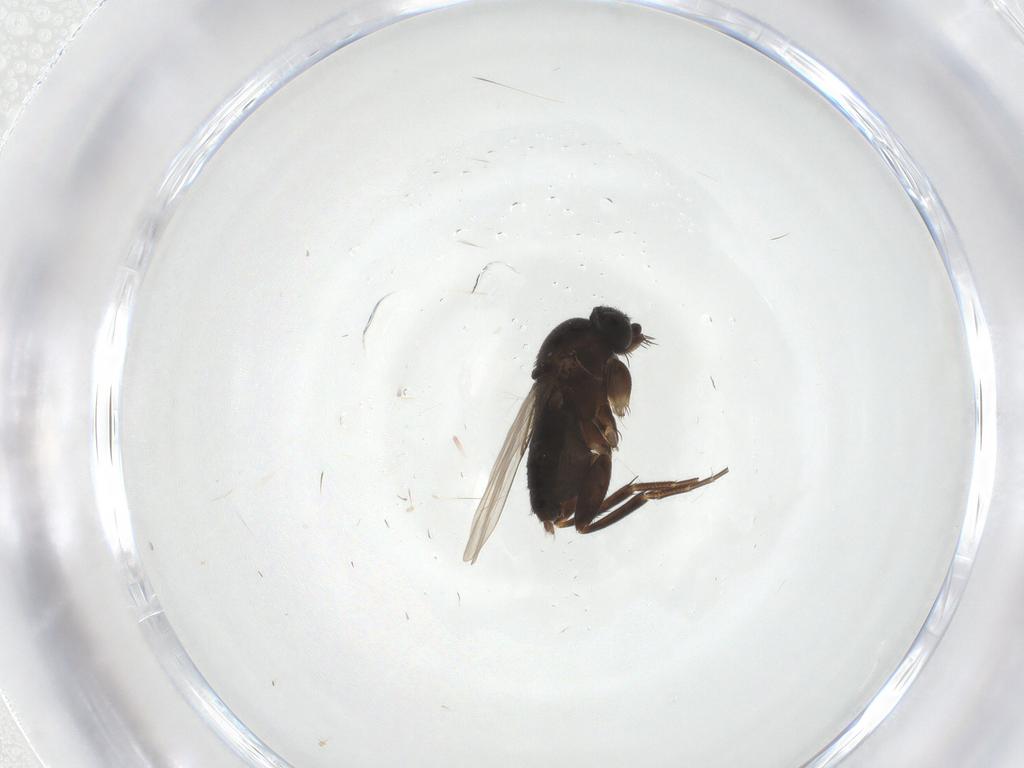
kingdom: Animalia
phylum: Arthropoda
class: Insecta
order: Diptera
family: Phoridae
